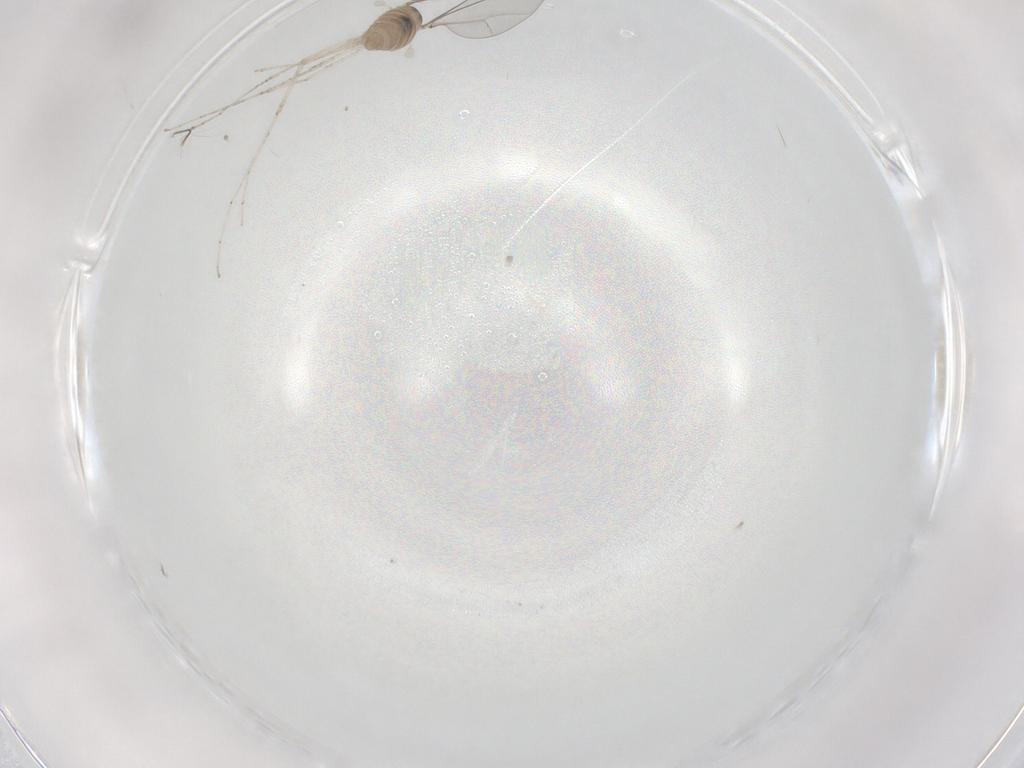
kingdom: Animalia
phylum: Arthropoda
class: Insecta
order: Diptera
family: Cecidomyiidae
